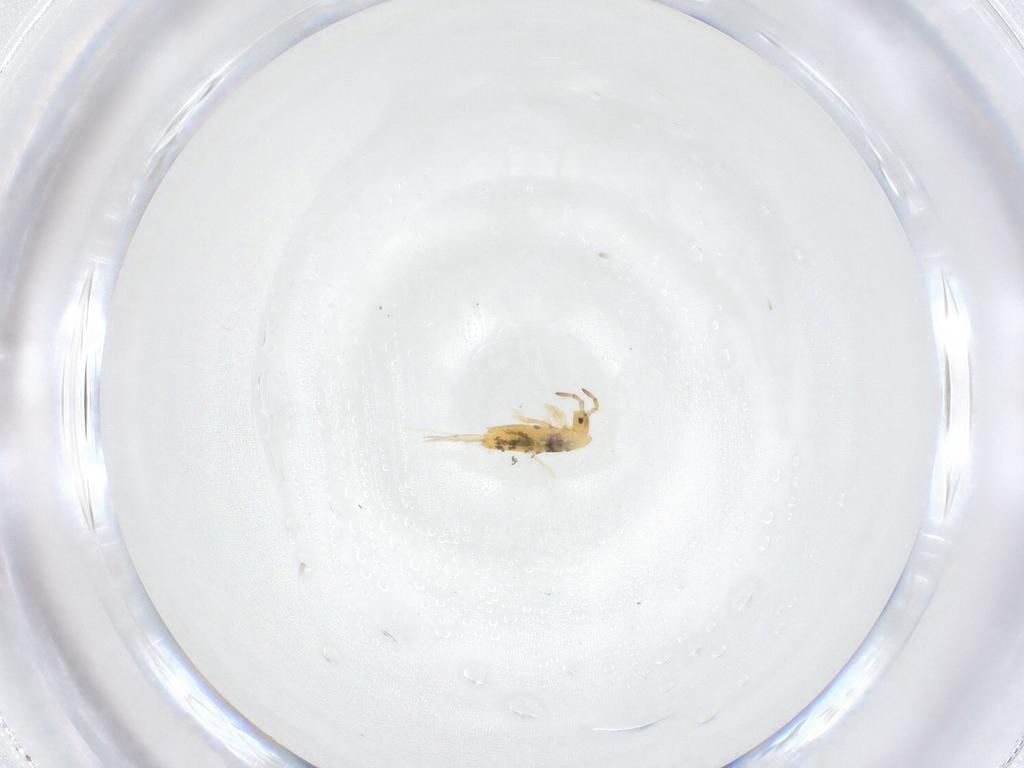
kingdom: Animalia
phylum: Arthropoda
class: Collembola
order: Entomobryomorpha
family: Entomobryidae
